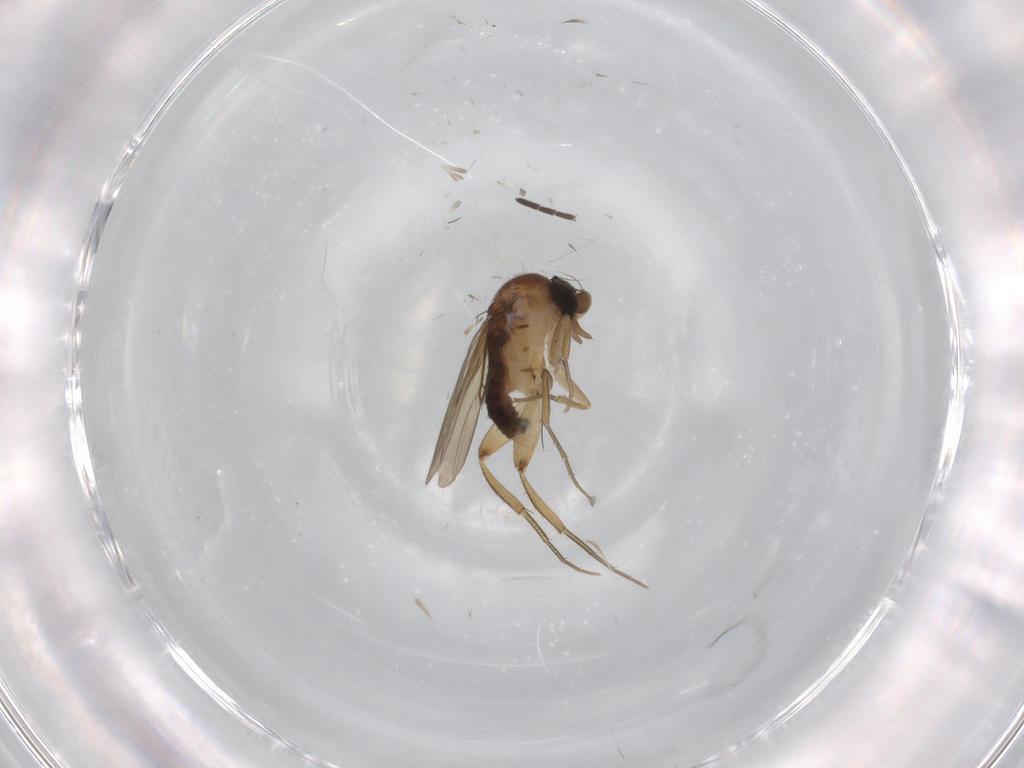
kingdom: Animalia
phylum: Arthropoda
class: Insecta
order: Diptera
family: Phoridae
